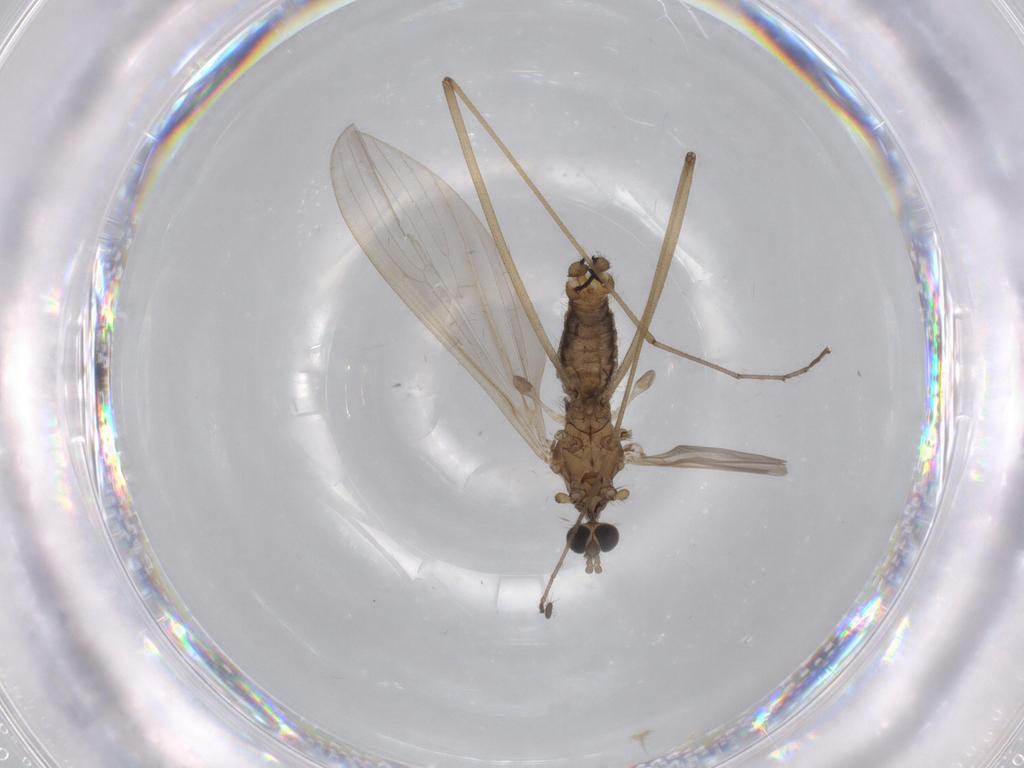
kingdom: Animalia
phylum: Arthropoda
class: Insecta
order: Diptera
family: Limoniidae
